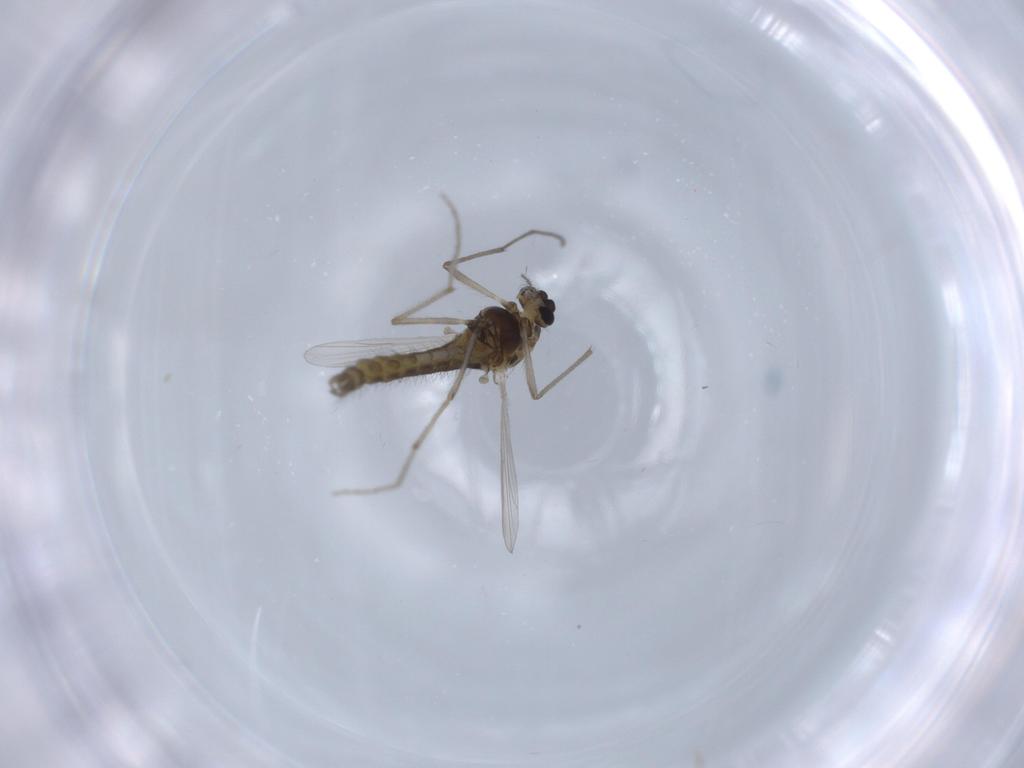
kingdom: Animalia
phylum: Arthropoda
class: Insecta
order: Diptera
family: Chironomidae
